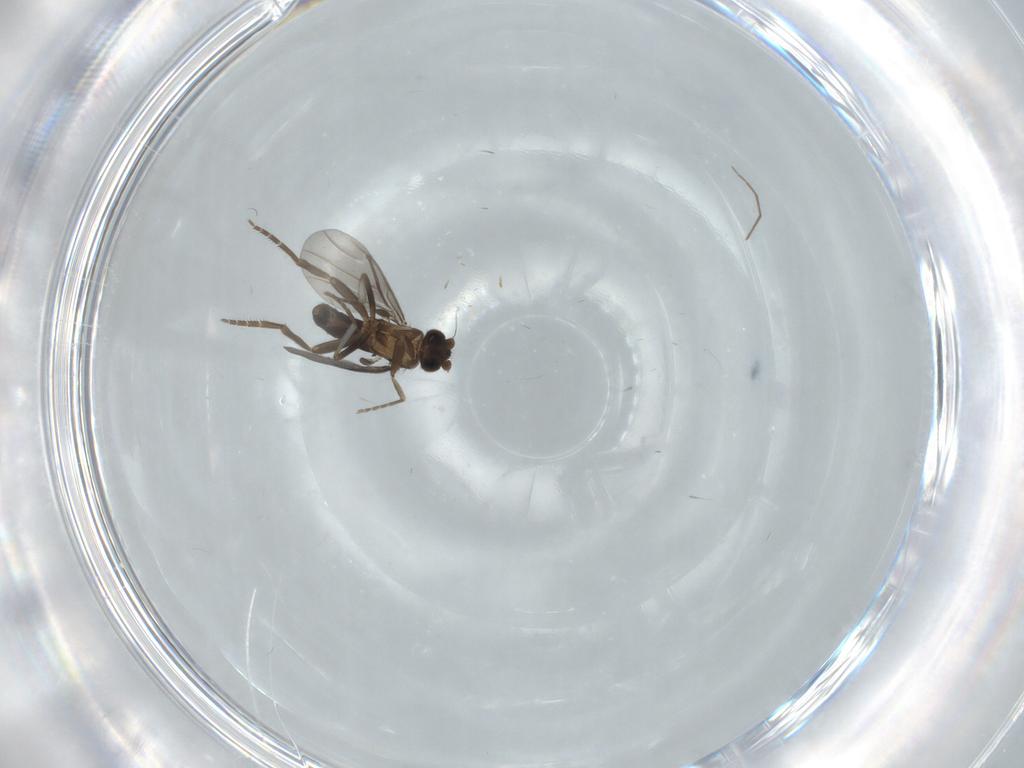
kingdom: Animalia
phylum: Arthropoda
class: Insecta
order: Diptera
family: Phoridae
